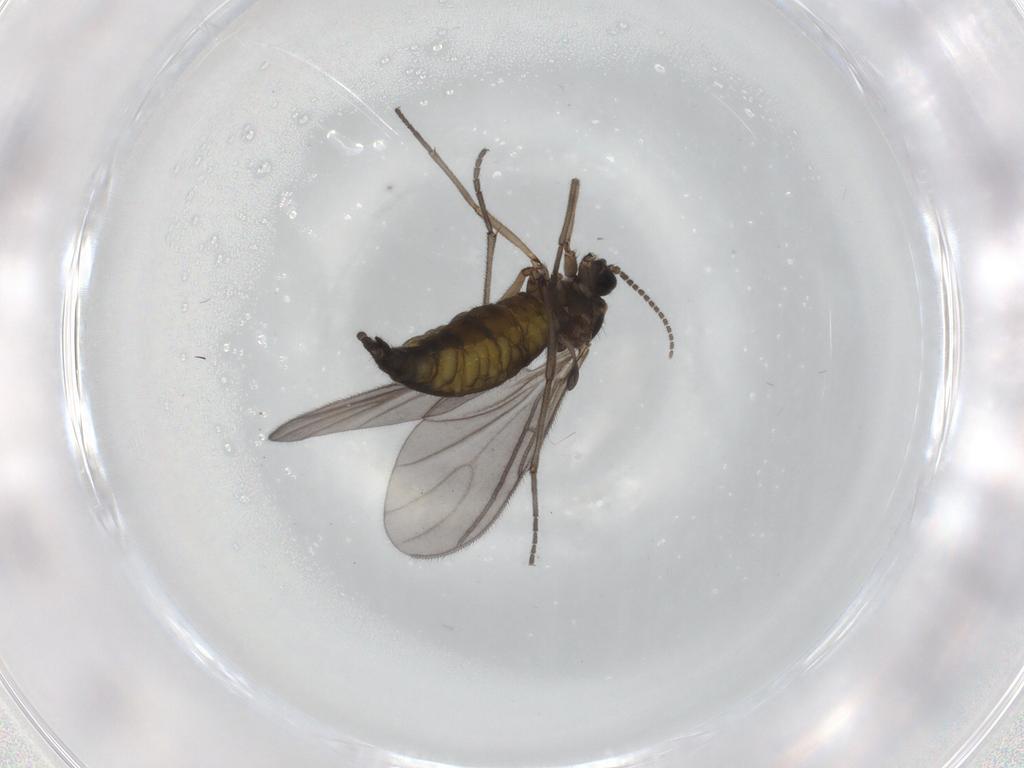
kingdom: Animalia
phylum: Arthropoda
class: Insecta
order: Diptera
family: Sciaridae
